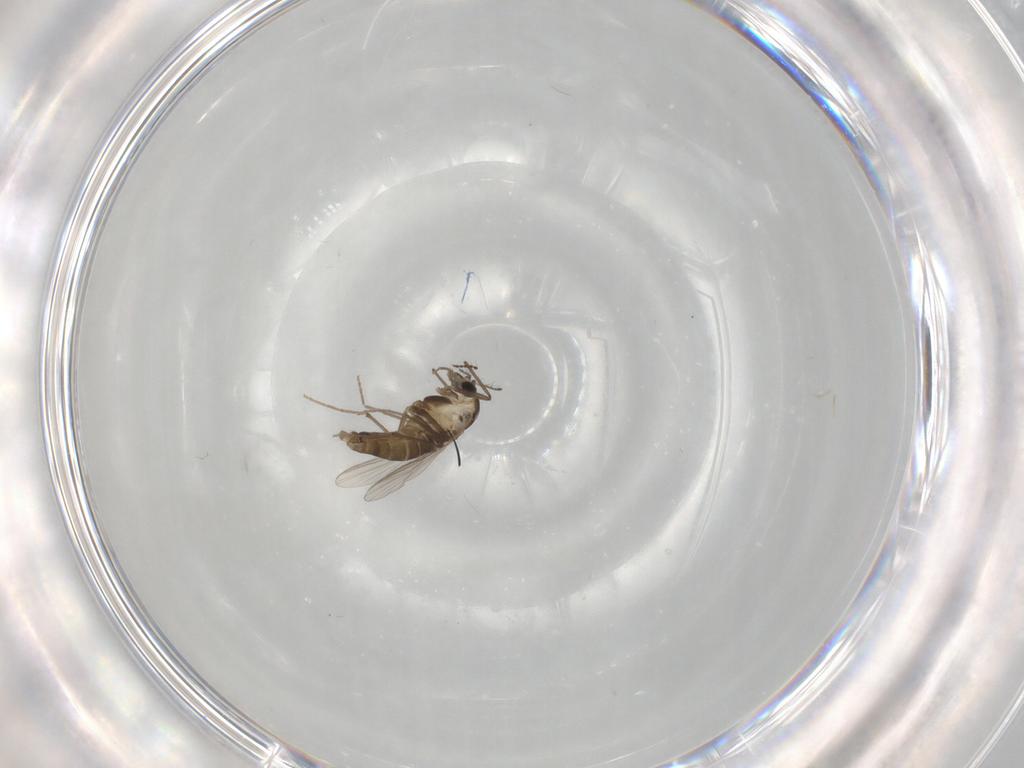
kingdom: Animalia
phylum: Arthropoda
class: Insecta
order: Diptera
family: Chironomidae
